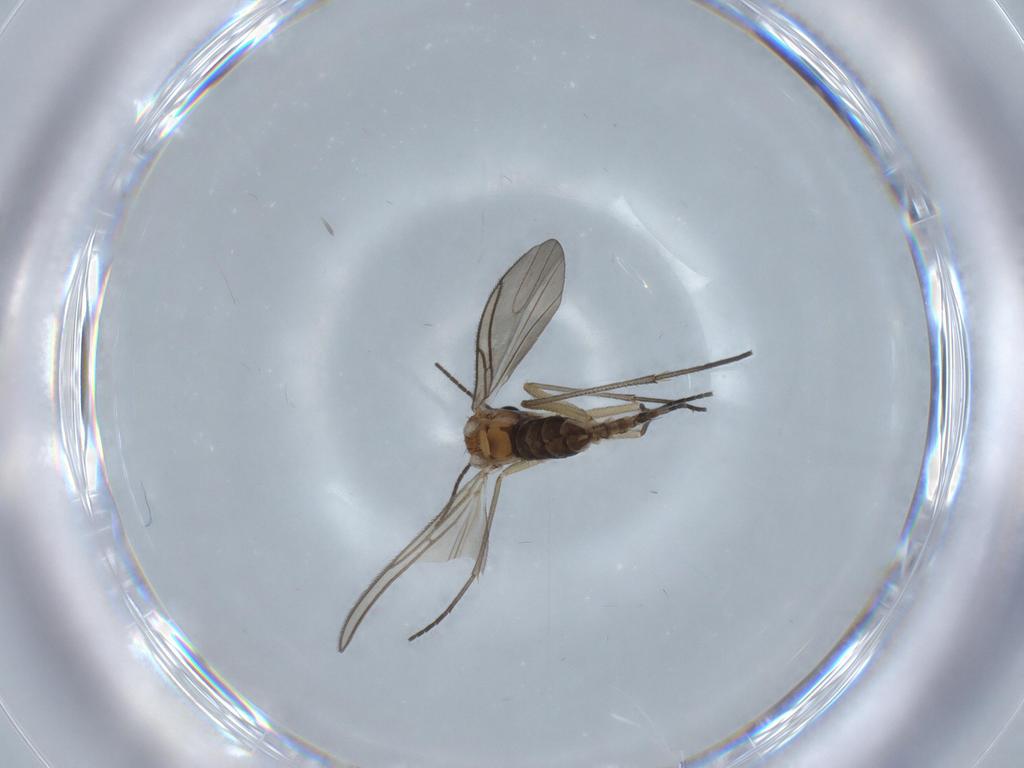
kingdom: Animalia
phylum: Arthropoda
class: Insecta
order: Diptera
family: Sciaridae
